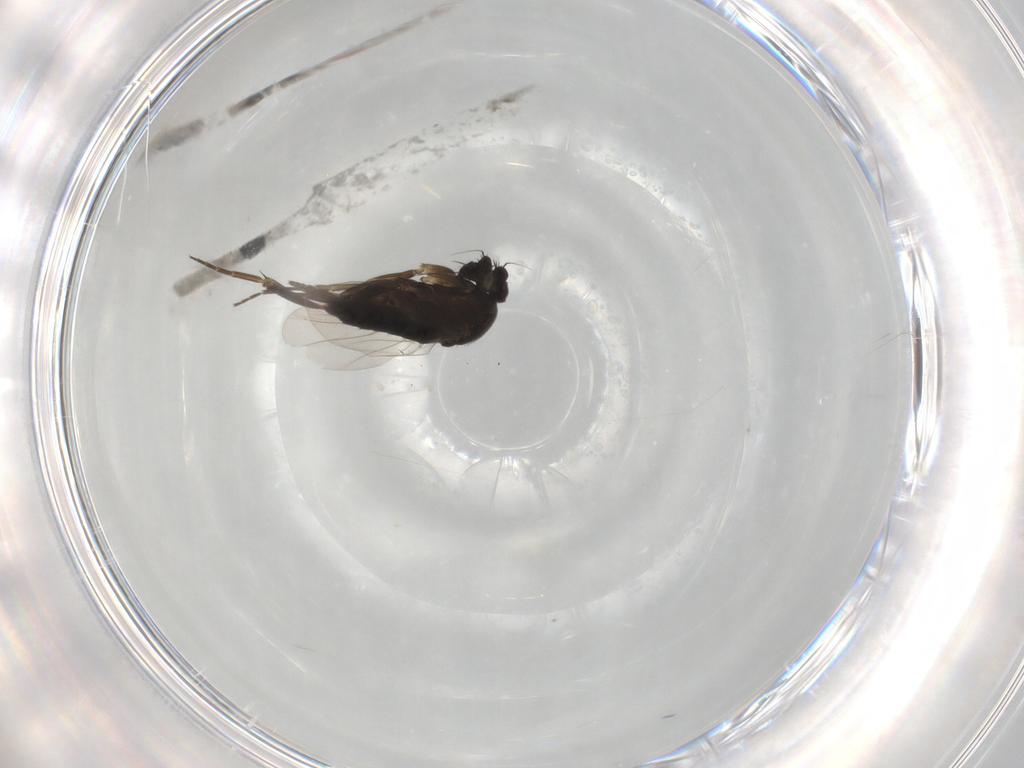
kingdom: Animalia
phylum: Arthropoda
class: Insecta
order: Diptera
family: Phoridae
